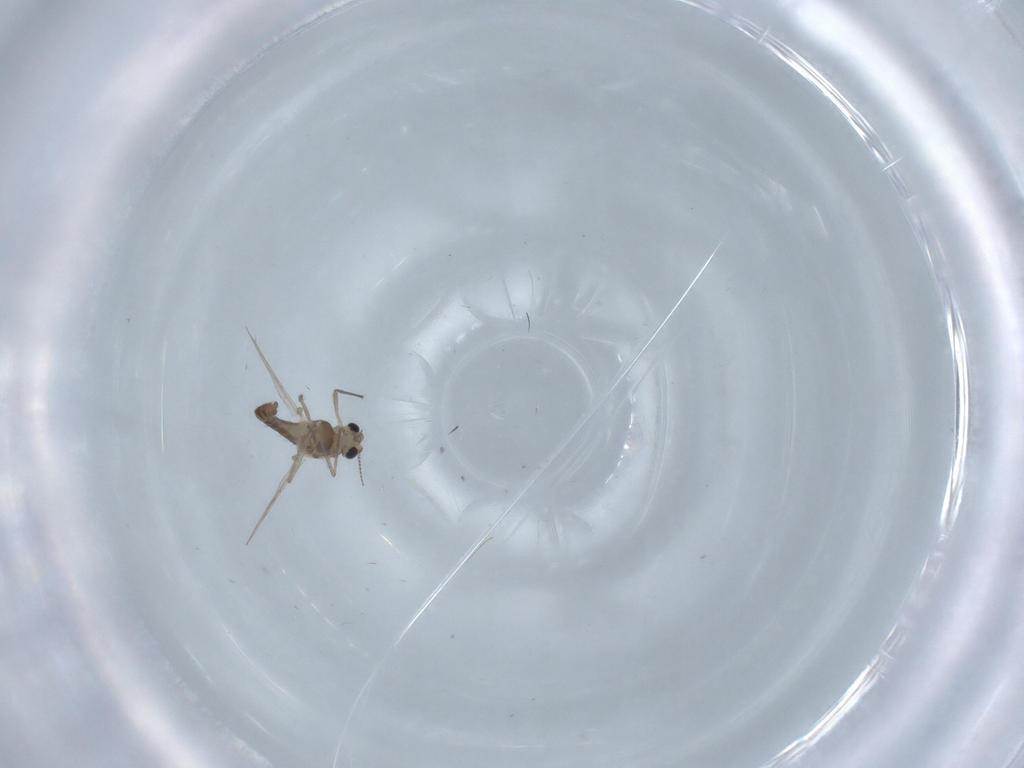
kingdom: Animalia
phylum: Arthropoda
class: Insecta
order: Diptera
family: Chironomidae
